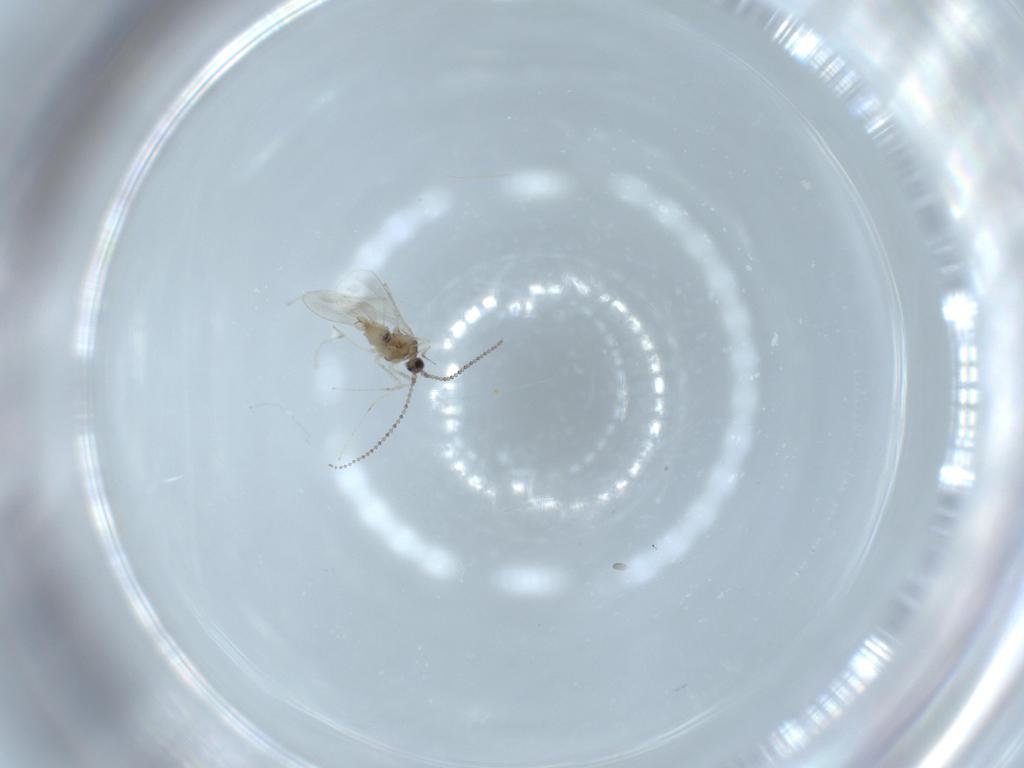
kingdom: Animalia
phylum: Arthropoda
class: Insecta
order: Diptera
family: Cecidomyiidae
